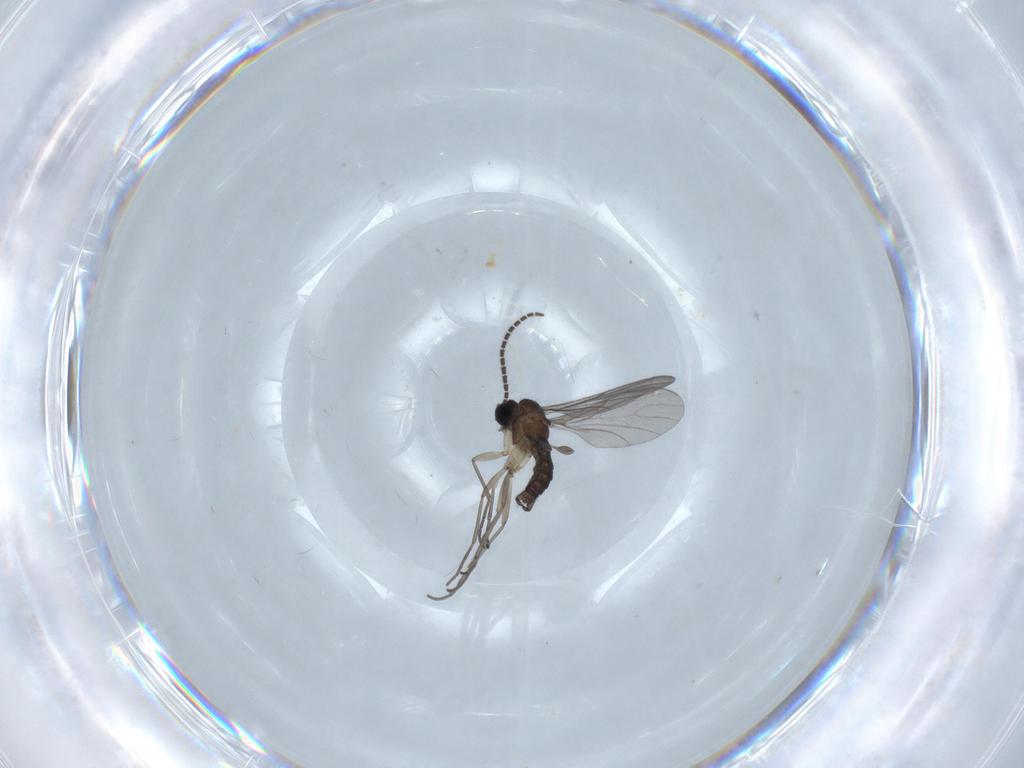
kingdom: Animalia
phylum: Arthropoda
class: Insecta
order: Diptera
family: Sciaridae
